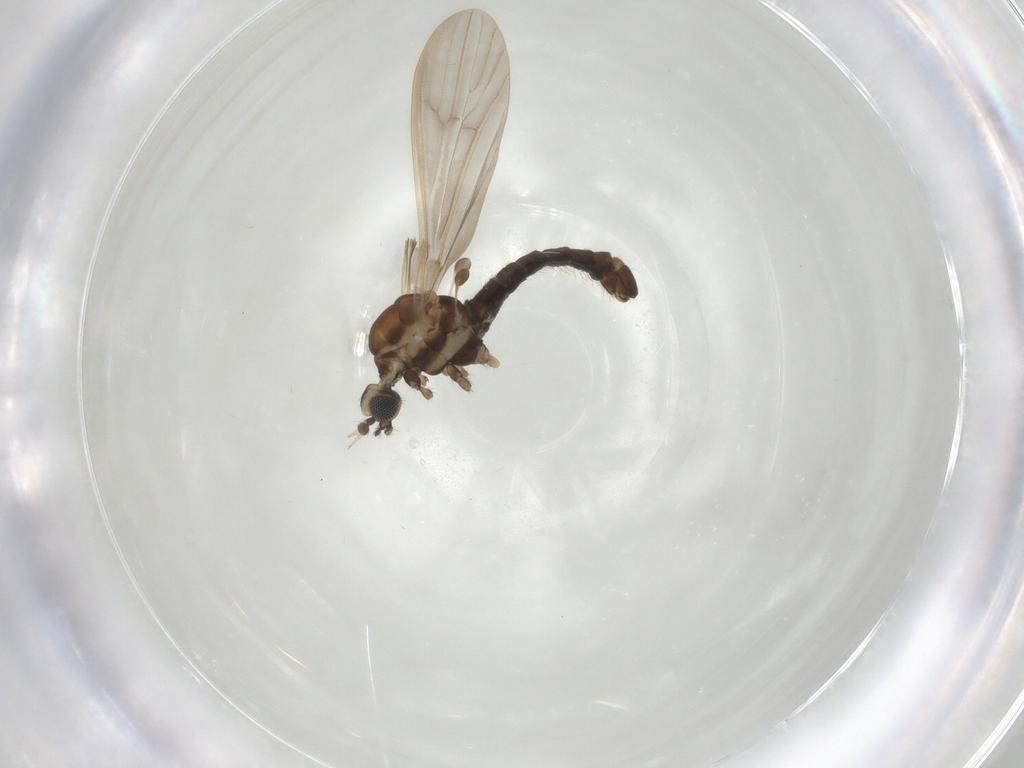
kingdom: Animalia
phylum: Arthropoda
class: Insecta
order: Diptera
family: Limoniidae
